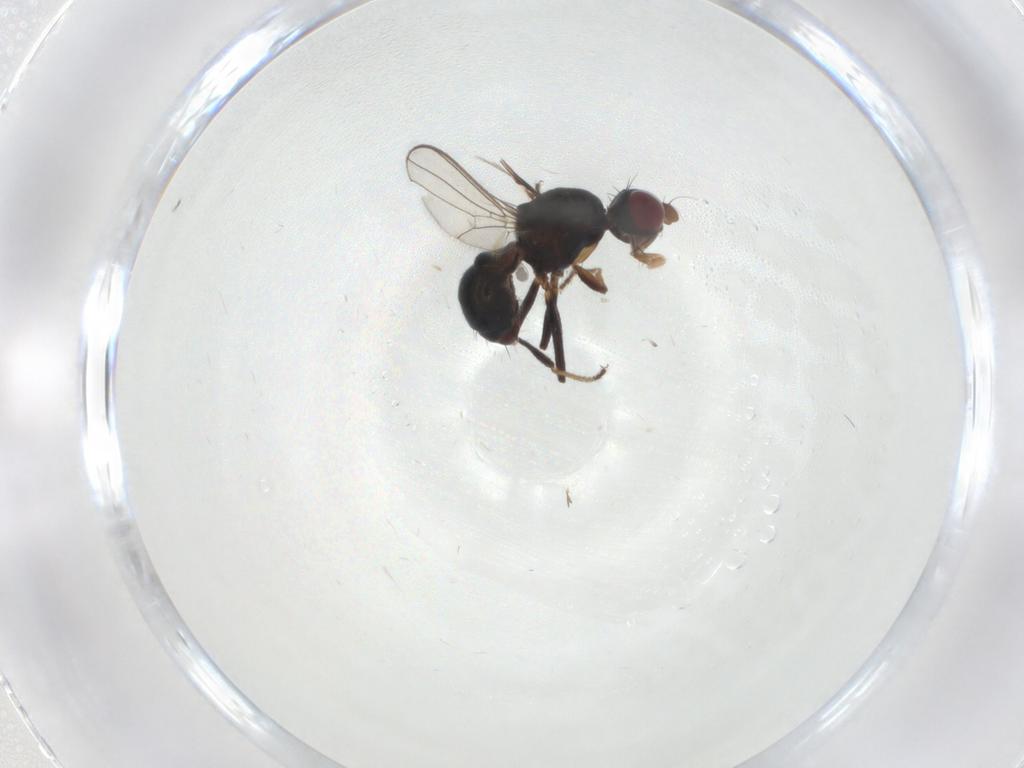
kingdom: Animalia
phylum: Arthropoda
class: Insecta
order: Diptera
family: Sepsidae
